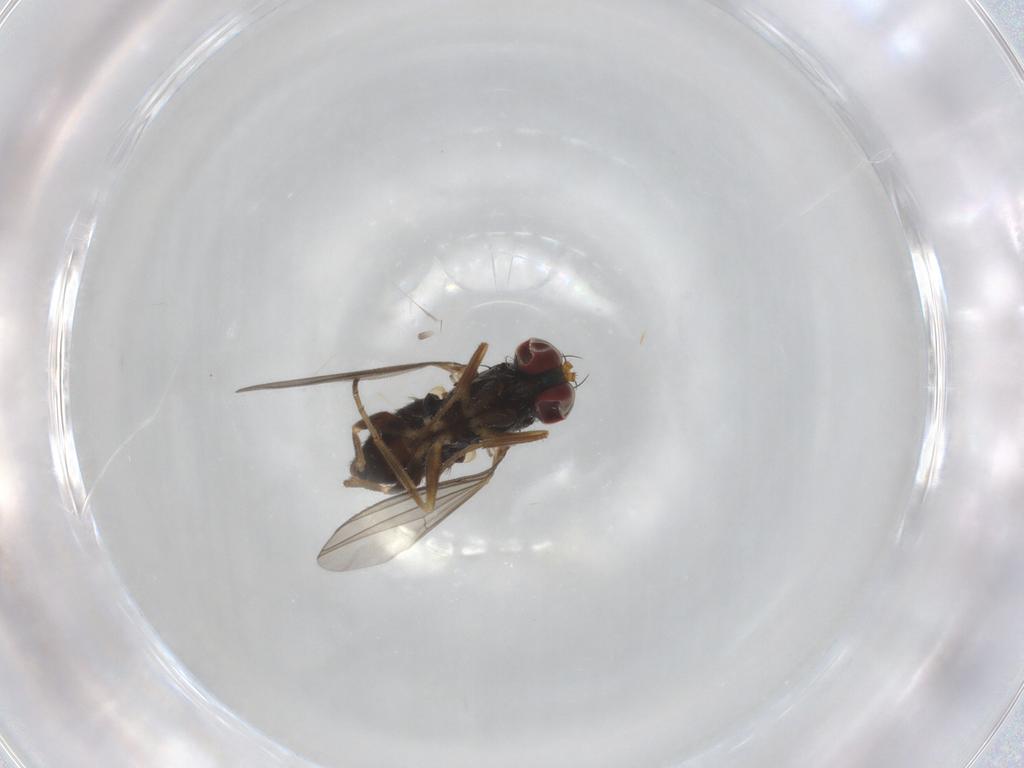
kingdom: Animalia
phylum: Arthropoda
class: Insecta
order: Diptera
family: Dolichopodidae
